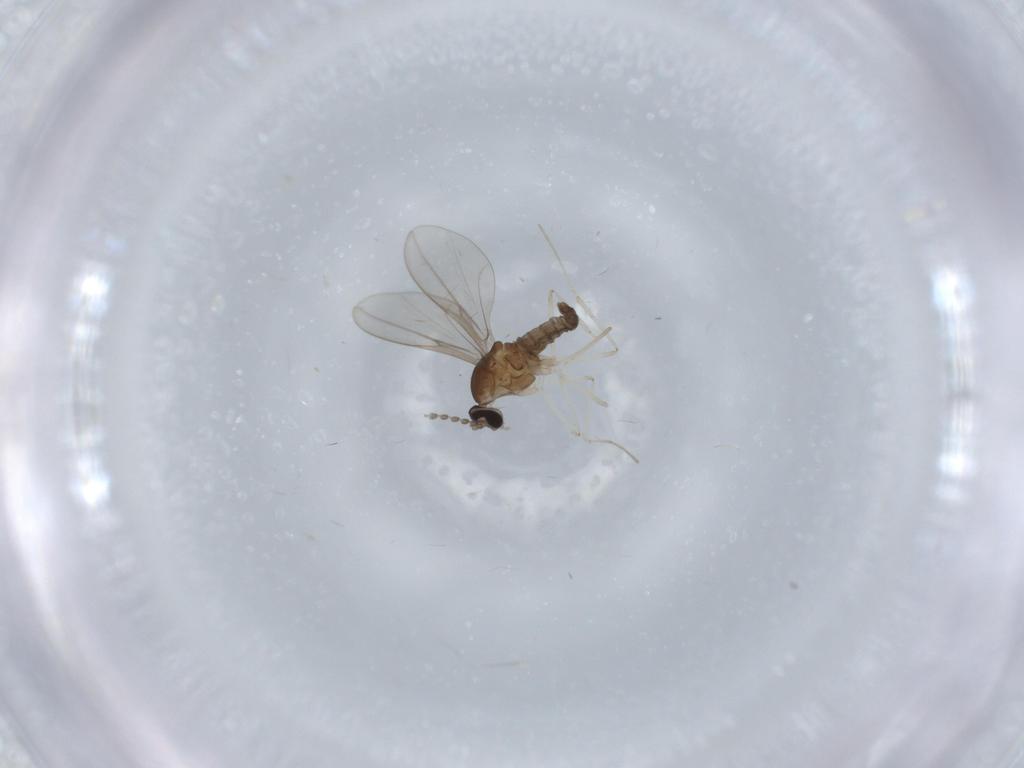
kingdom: Animalia
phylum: Arthropoda
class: Insecta
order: Diptera
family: Cecidomyiidae
